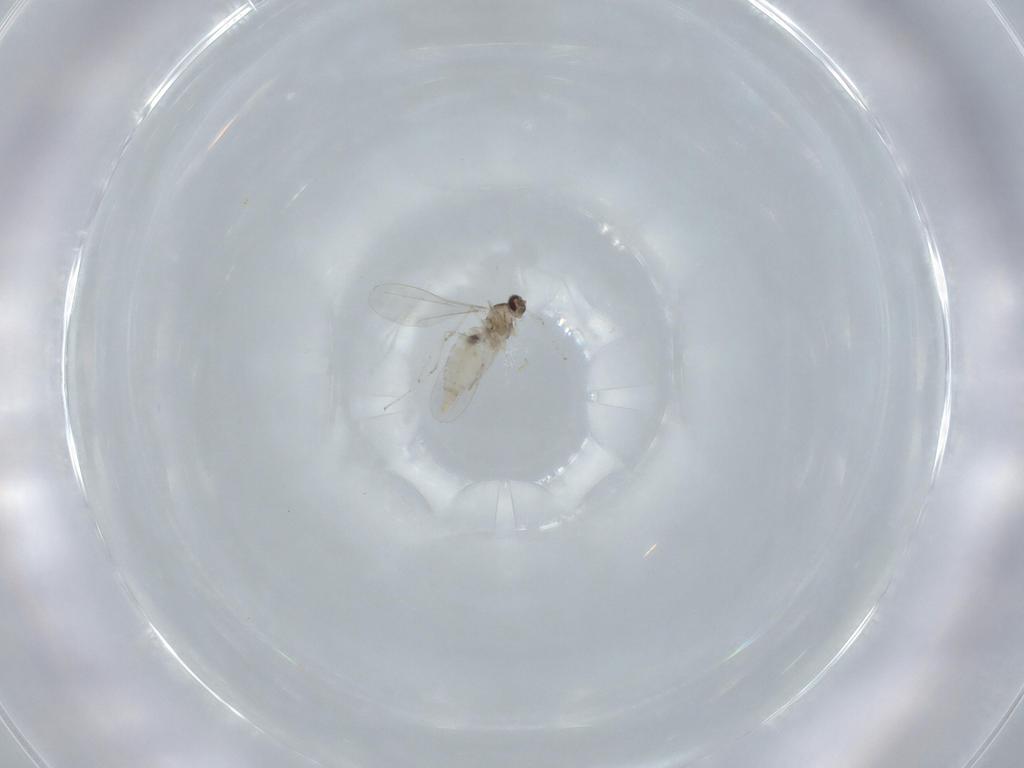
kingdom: Animalia
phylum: Arthropoda
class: Insecta
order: Diptera
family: Cecidomyiidae
